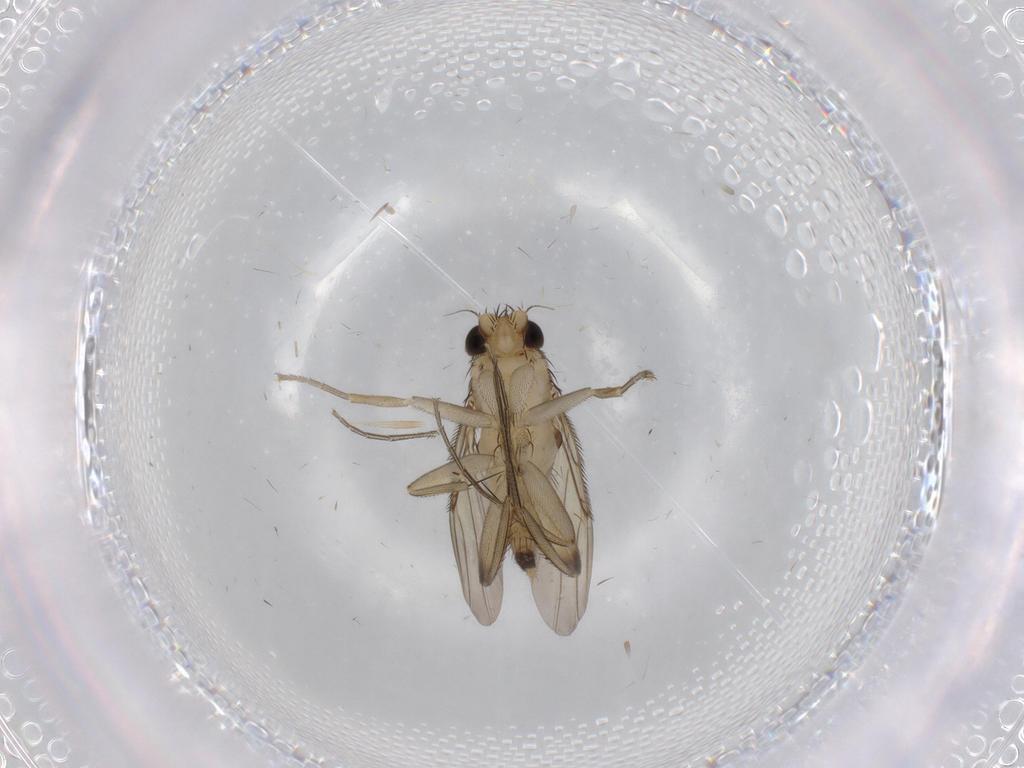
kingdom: Animalia
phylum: Arthropoda
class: Insecta
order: Diptera
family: Phoridae
